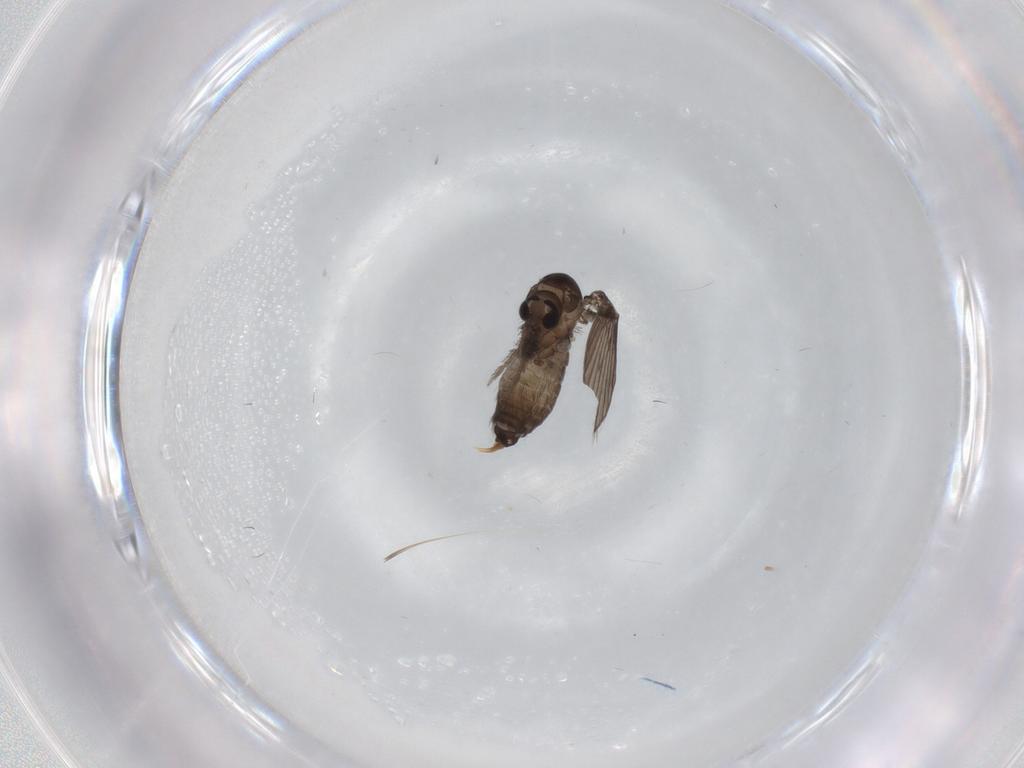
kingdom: Animalia
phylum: Arthropoda
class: Insecta
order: Diptera
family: Psychodidae
